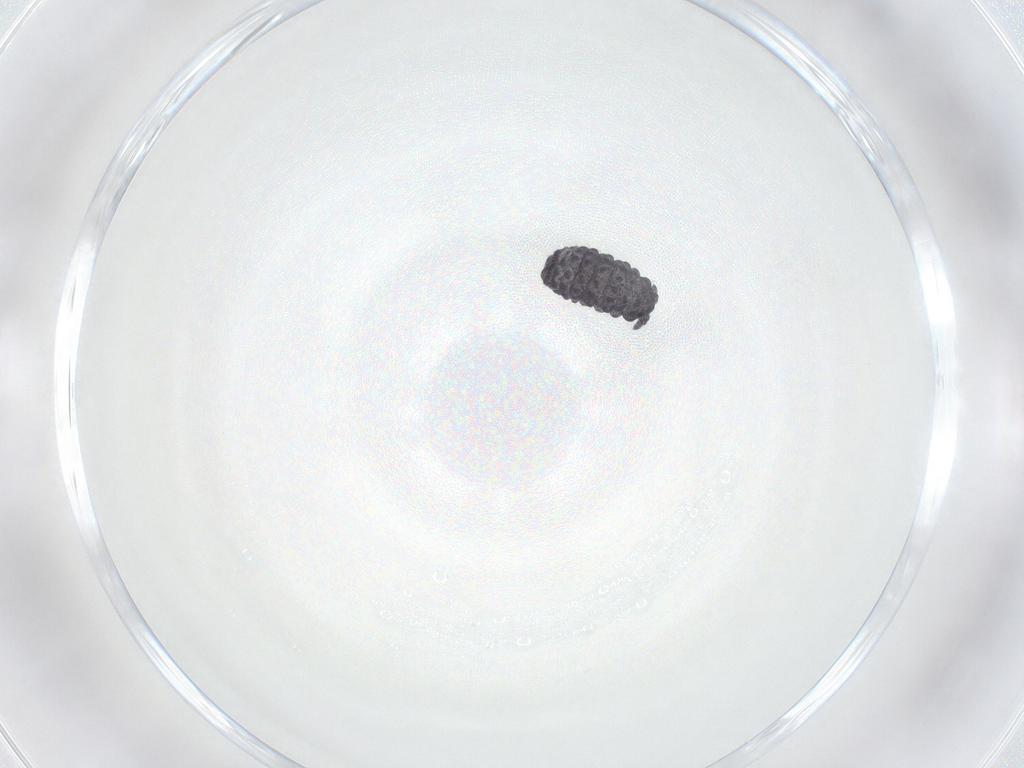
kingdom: Animalia
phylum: Arthropoda
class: Collembola
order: Poduromorpha
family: Neanuridae
